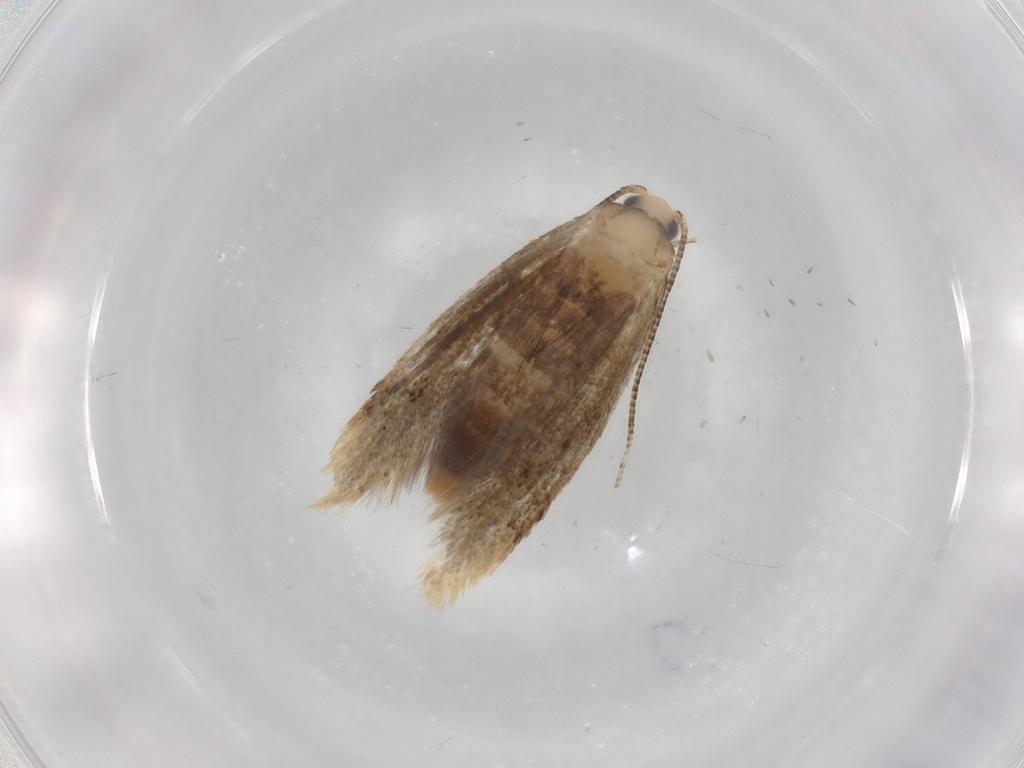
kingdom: Animalia
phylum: Arthropoda
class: Insecta
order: Lepidoptera
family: Tineidae
